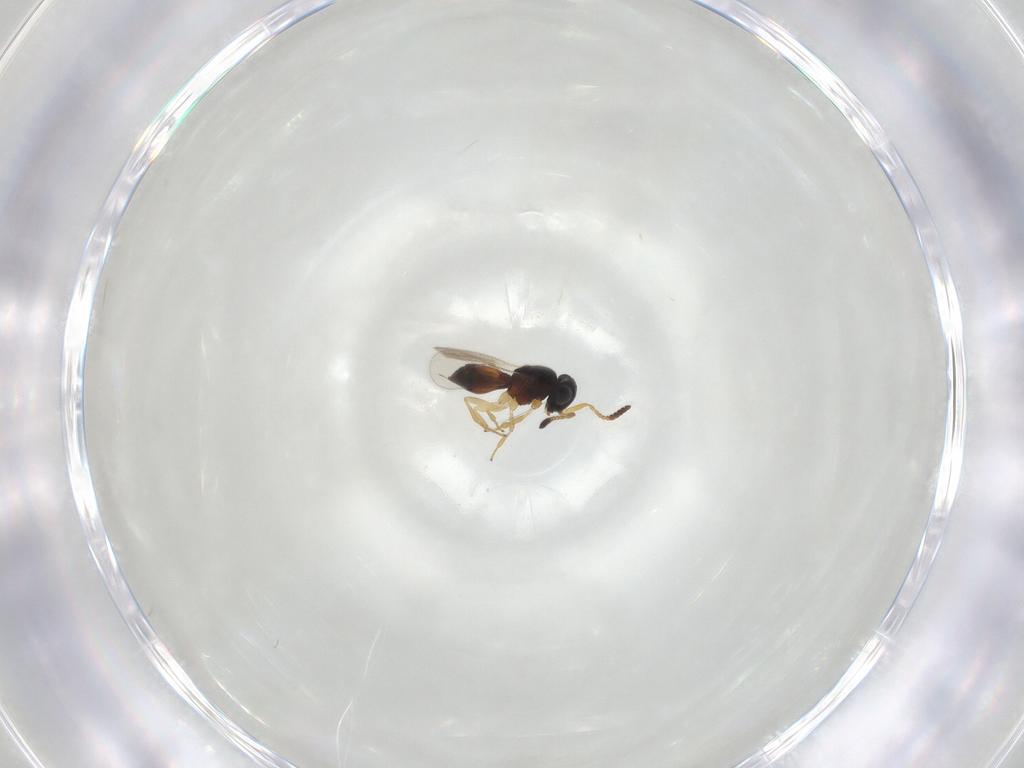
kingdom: Animalia
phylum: Arthropoda
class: Insecta
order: Hymenoptera
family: Scelionidae
